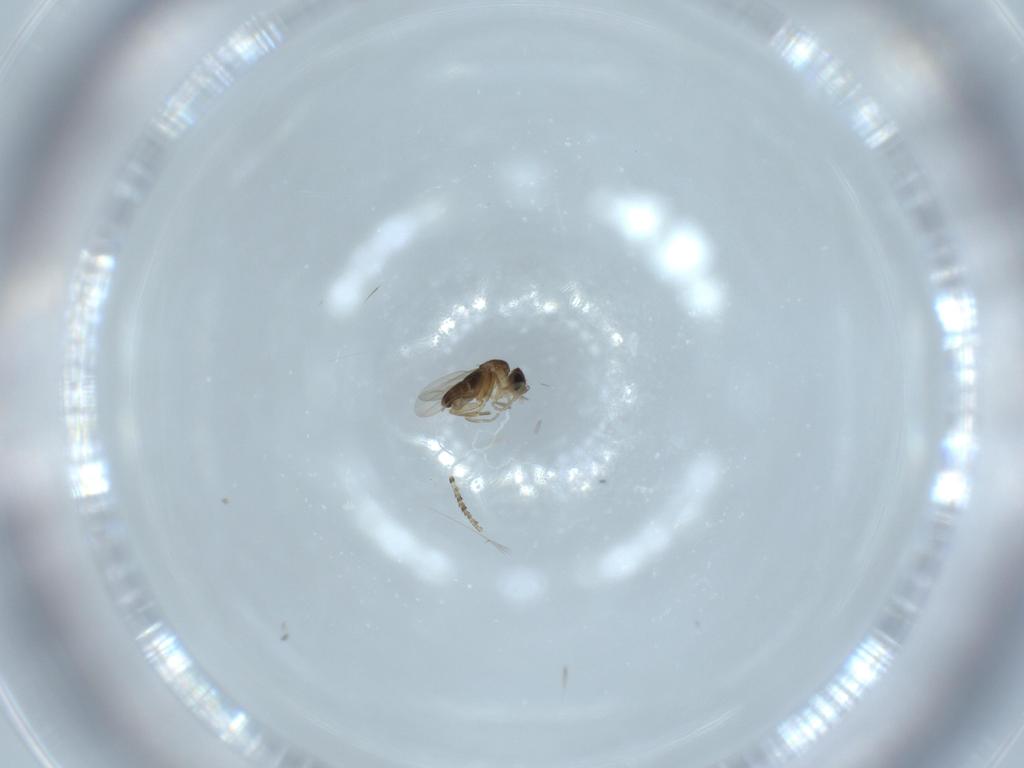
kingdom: Animalia
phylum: Arthropoda
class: Insecta
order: Diptera
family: Phoridae
